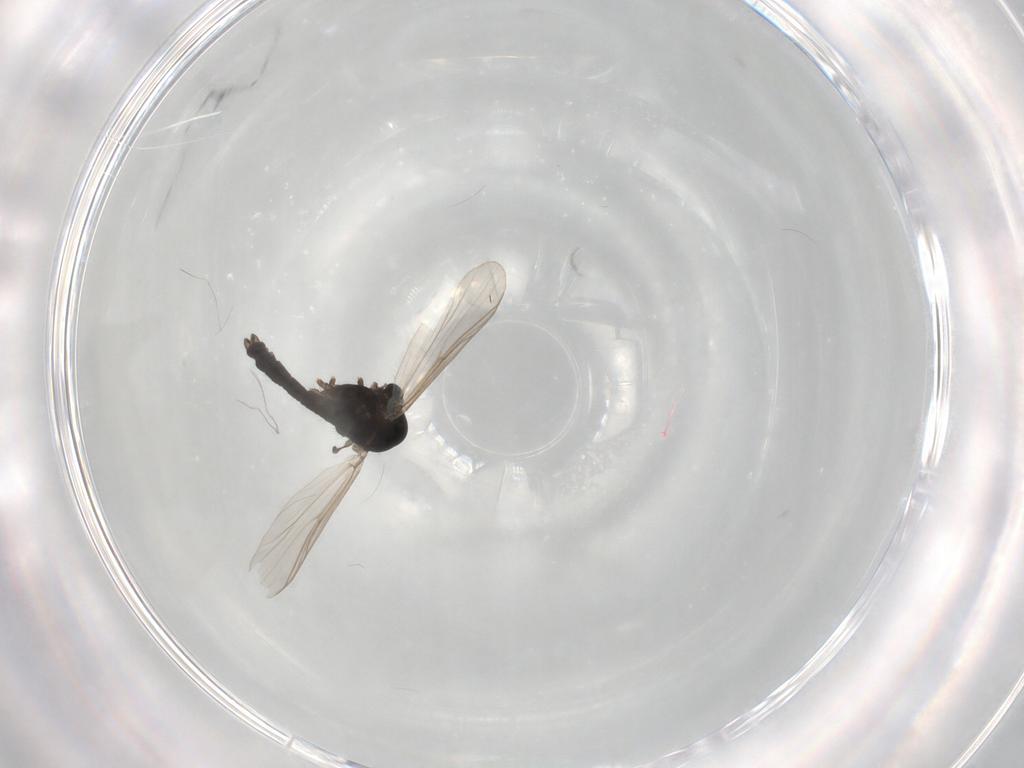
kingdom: Animalia
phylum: Arthropoda
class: Insecta
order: Diptera
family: Chironomidae
